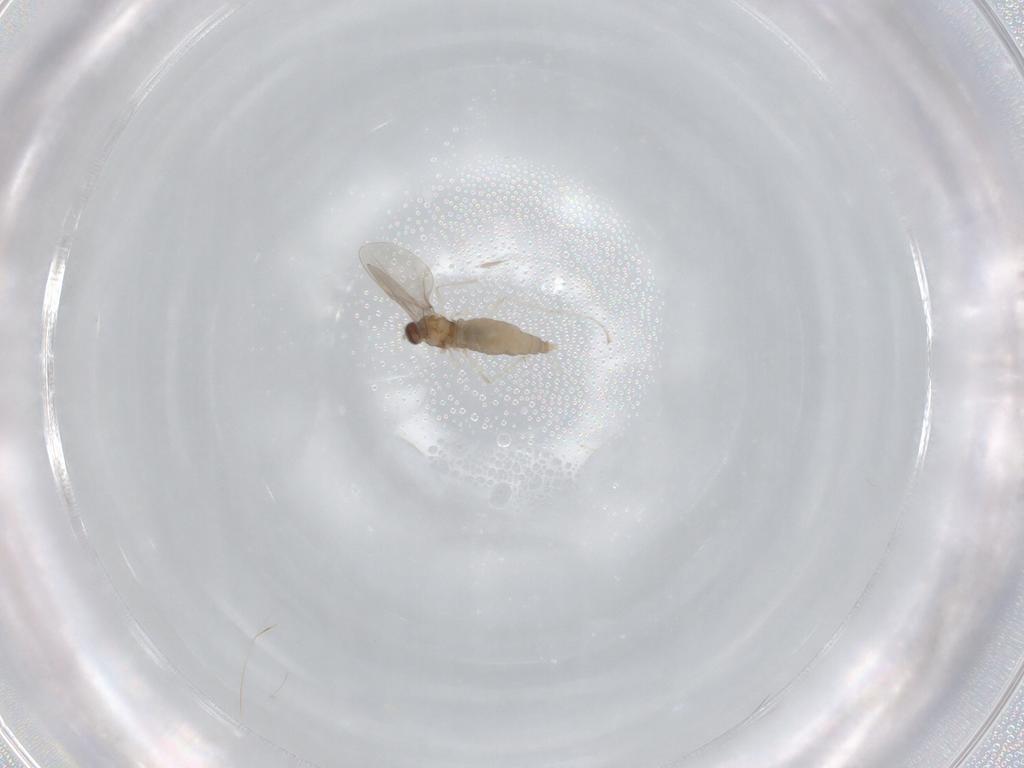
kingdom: Animalia
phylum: Arthropoda
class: Insecta
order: Diptera
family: Cecidomyiidae
